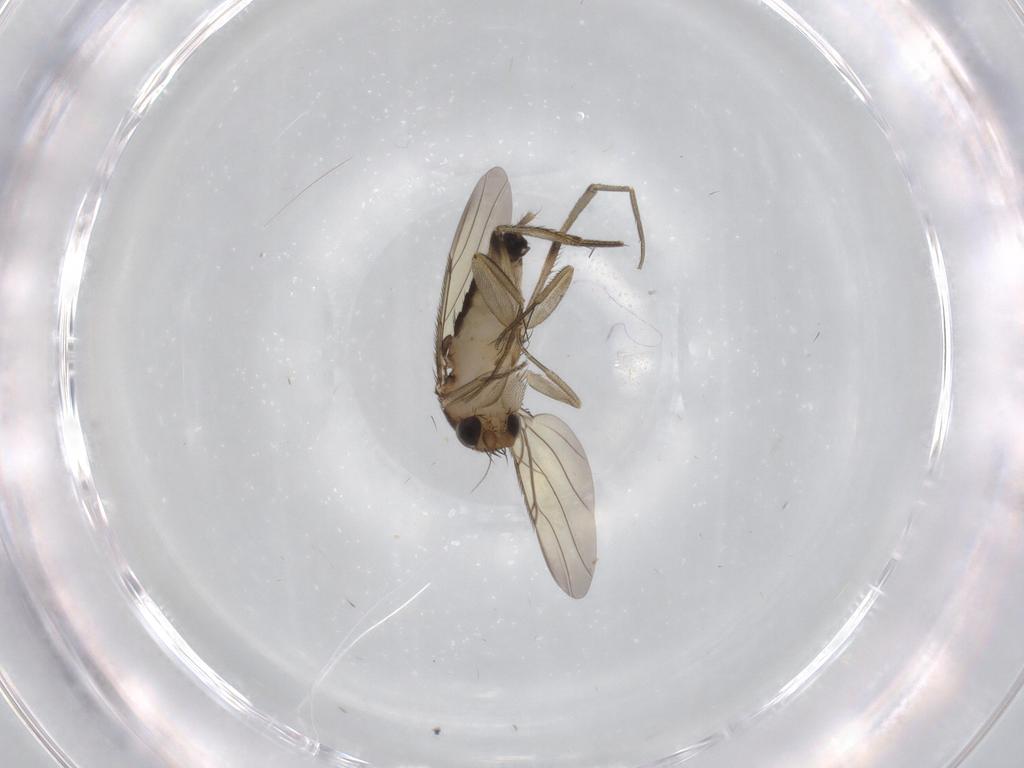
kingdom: Animalia
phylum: Arthropoda
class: Insecta
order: Diptera
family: Phoridae
